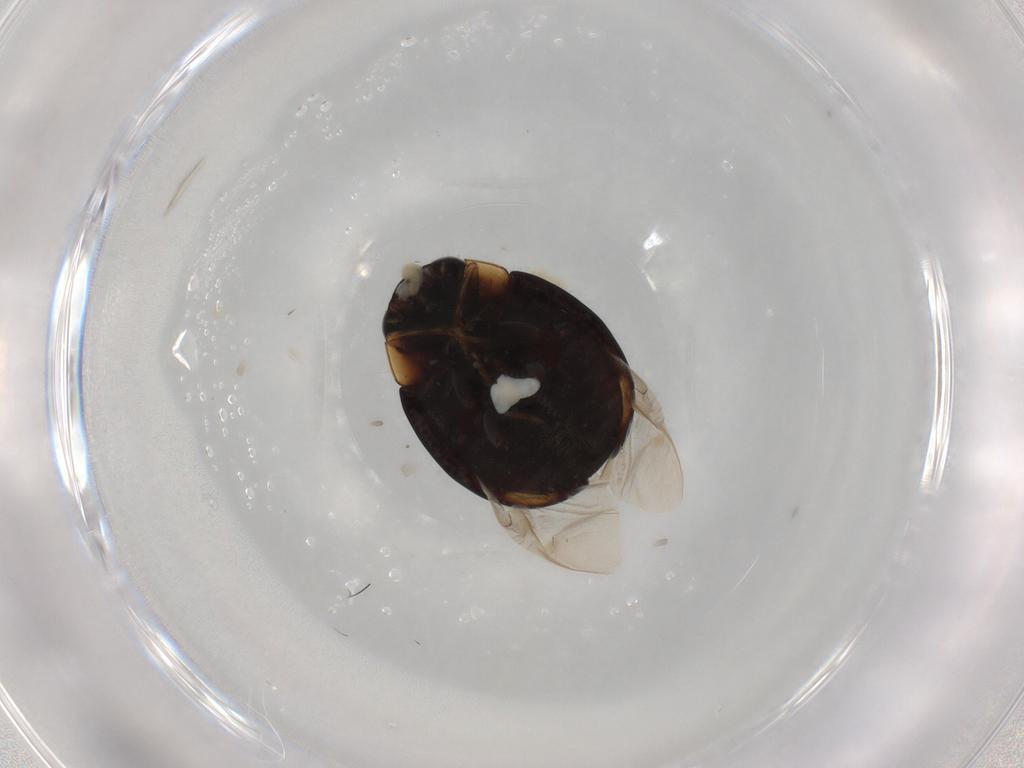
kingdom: Animalia
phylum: Arthropoda
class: Insecta
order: Coleoptera
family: Coccinellidae
